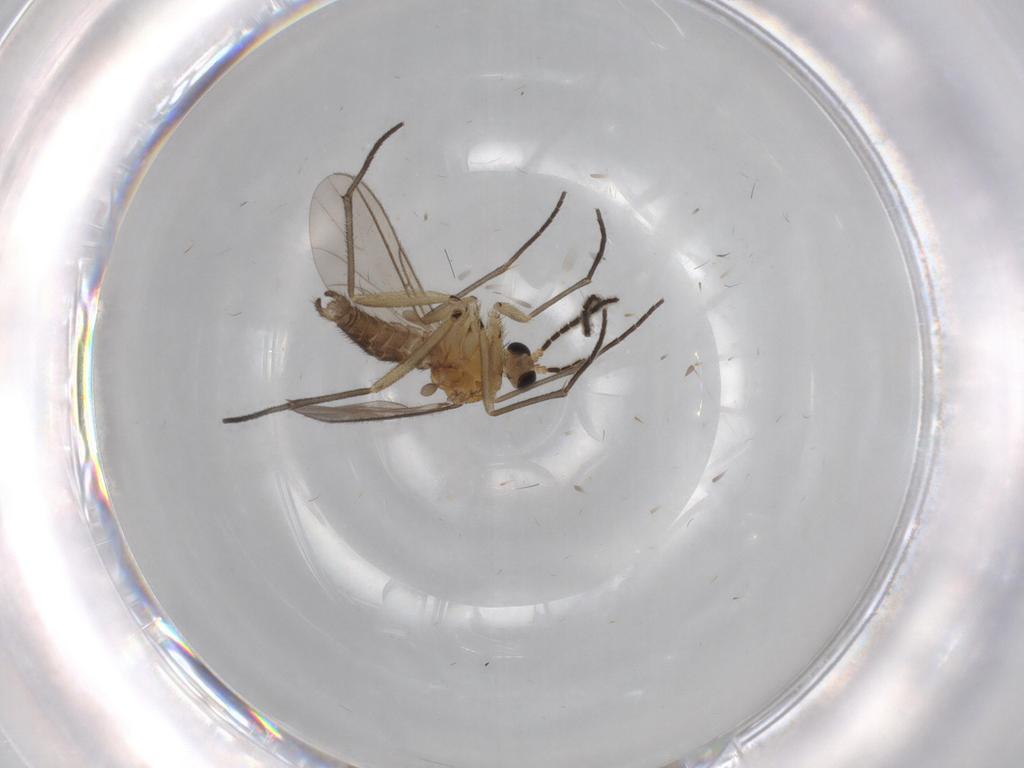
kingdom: Animalia
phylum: Arthropoda
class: Insecta
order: Diptera
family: Sciaridae
